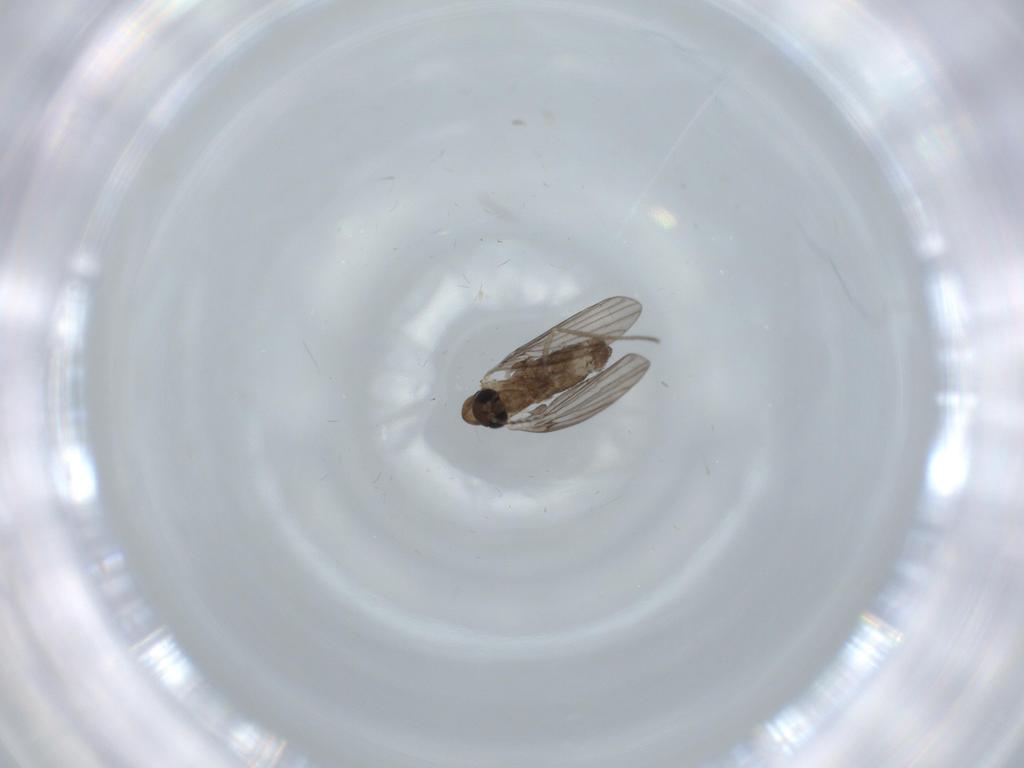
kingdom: Animalia
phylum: Arthropoda
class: Insecta
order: Diptera
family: Psychodidae
